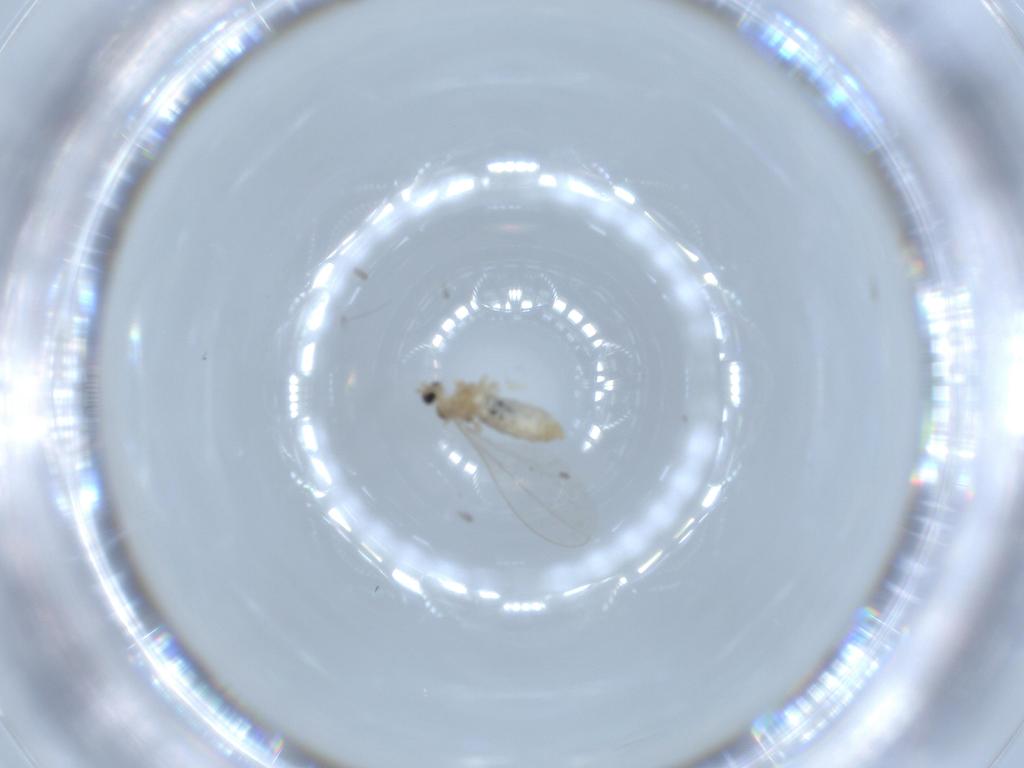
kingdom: Animalia
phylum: Arthropoda
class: Insecta
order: Diptera
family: Cecidomyiidae
